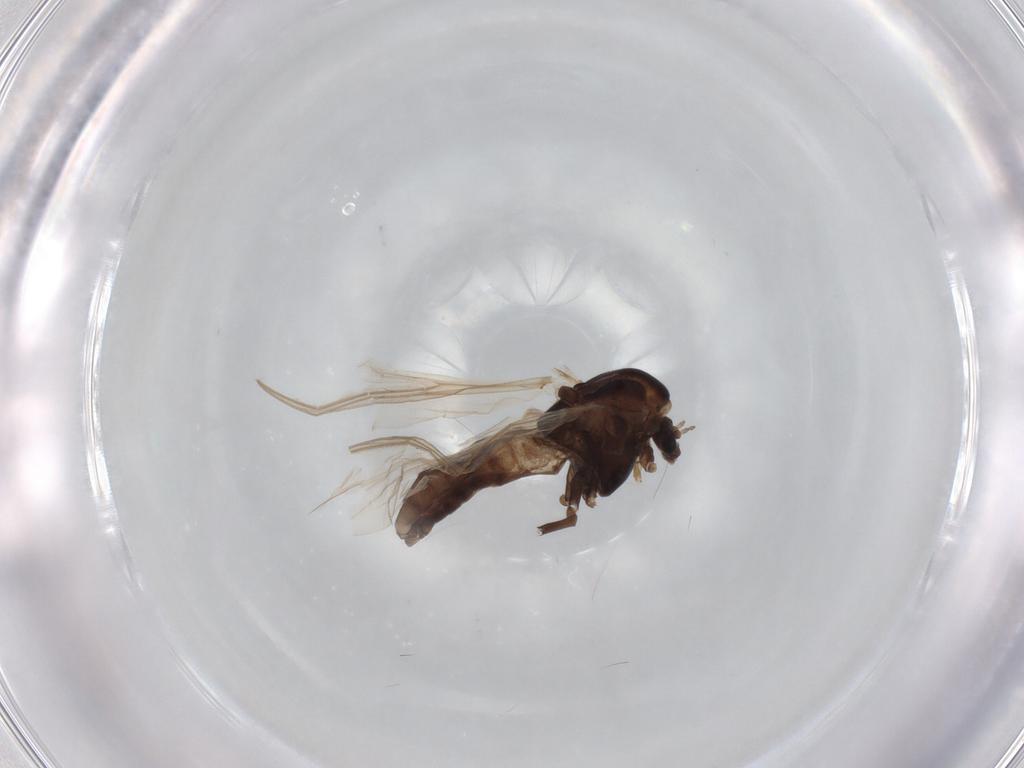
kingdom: Animalia
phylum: Arthropoda
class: Insecta
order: Diptera
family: Chironomidae
